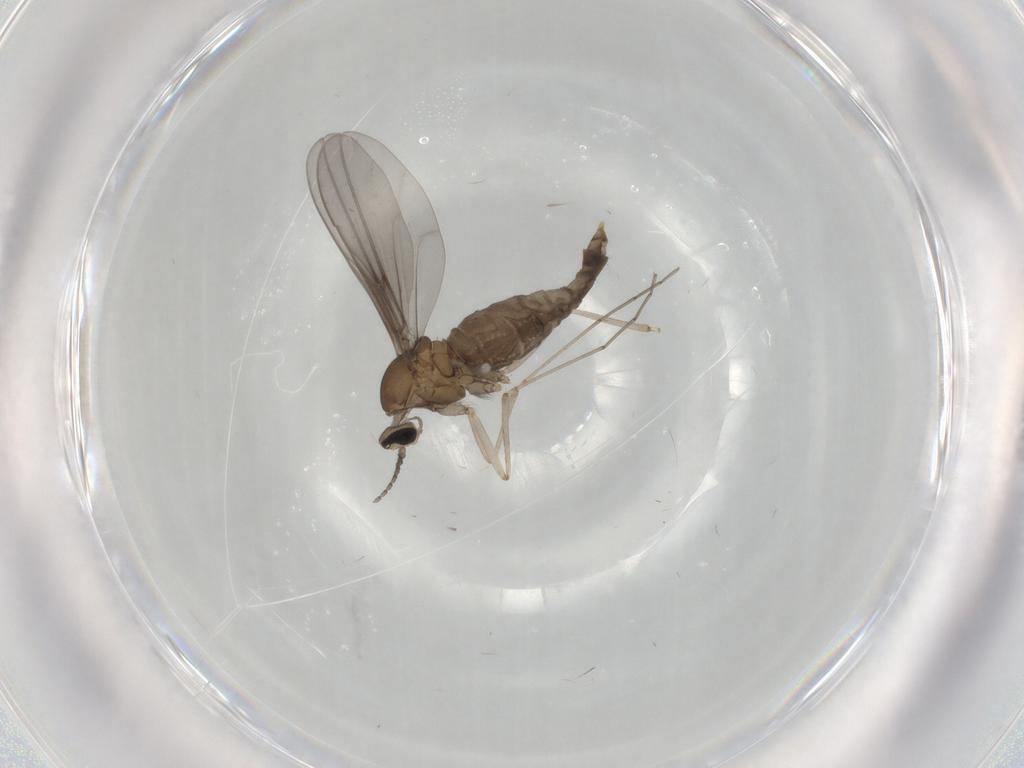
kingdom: Animalia
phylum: Arthropoda
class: Insecta
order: Diptera
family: Cecidomyiidae
